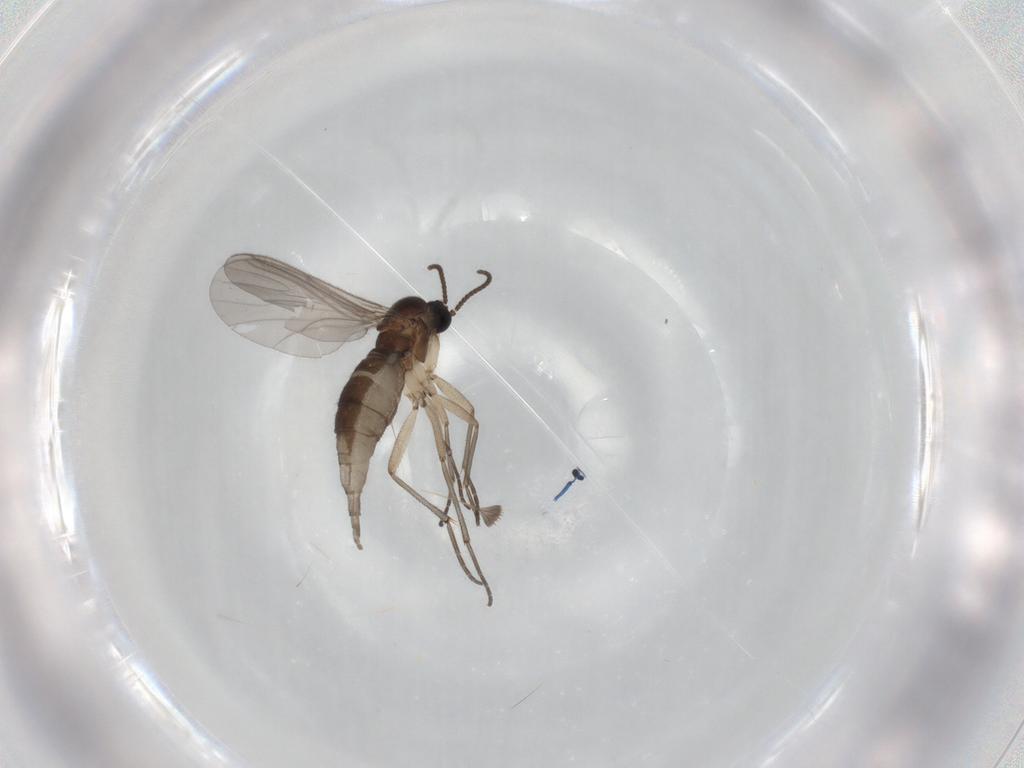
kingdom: Animalia
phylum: Arthropoda
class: Insecta
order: Diptera
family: Sciaridae
